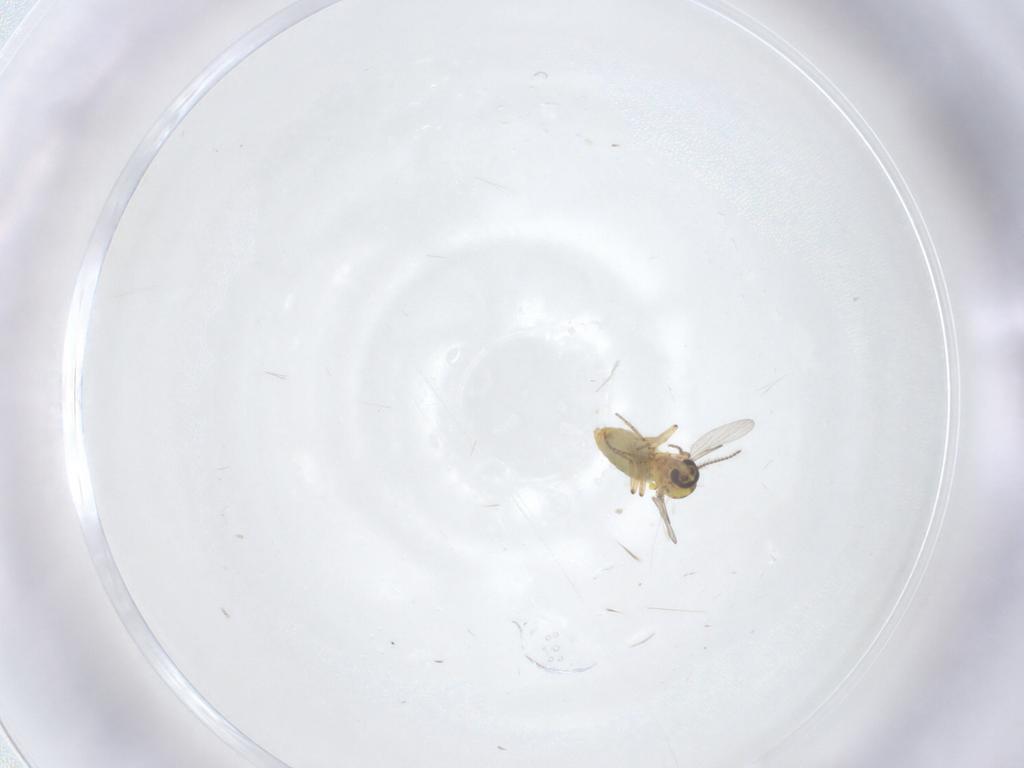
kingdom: Animalia
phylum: Arthropoda
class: Insecta
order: Diptera
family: Ceratopogonidae
